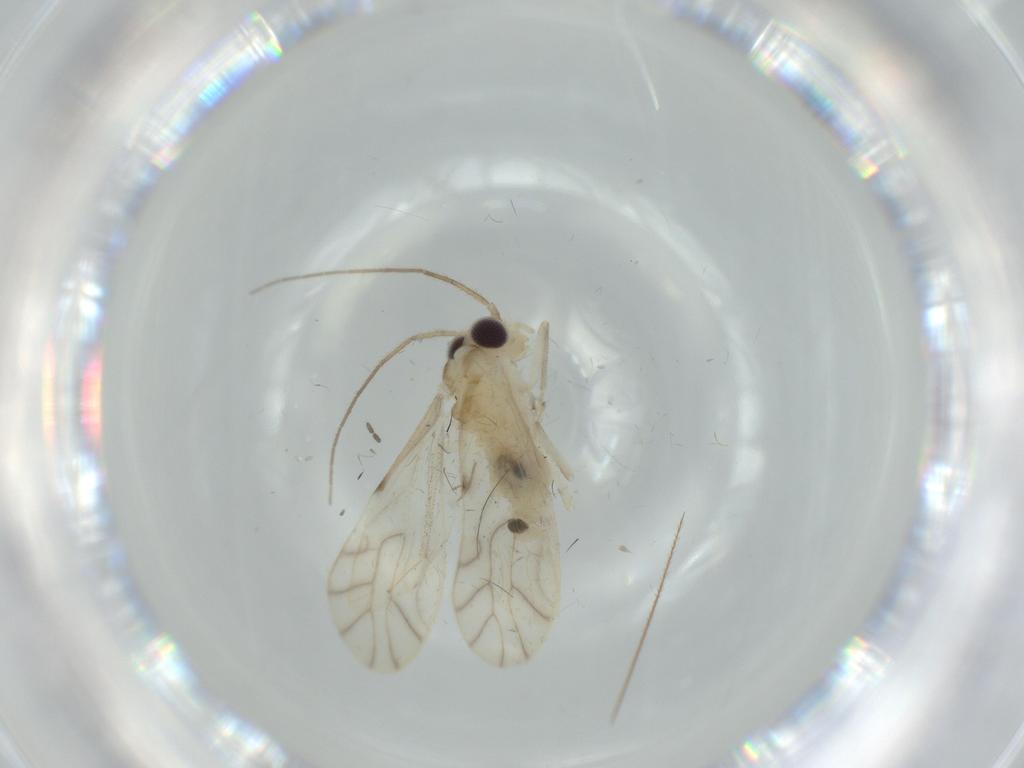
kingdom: Animalia
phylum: Arthropoda
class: Insecta
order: Psocodea
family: Caeciliusidae
